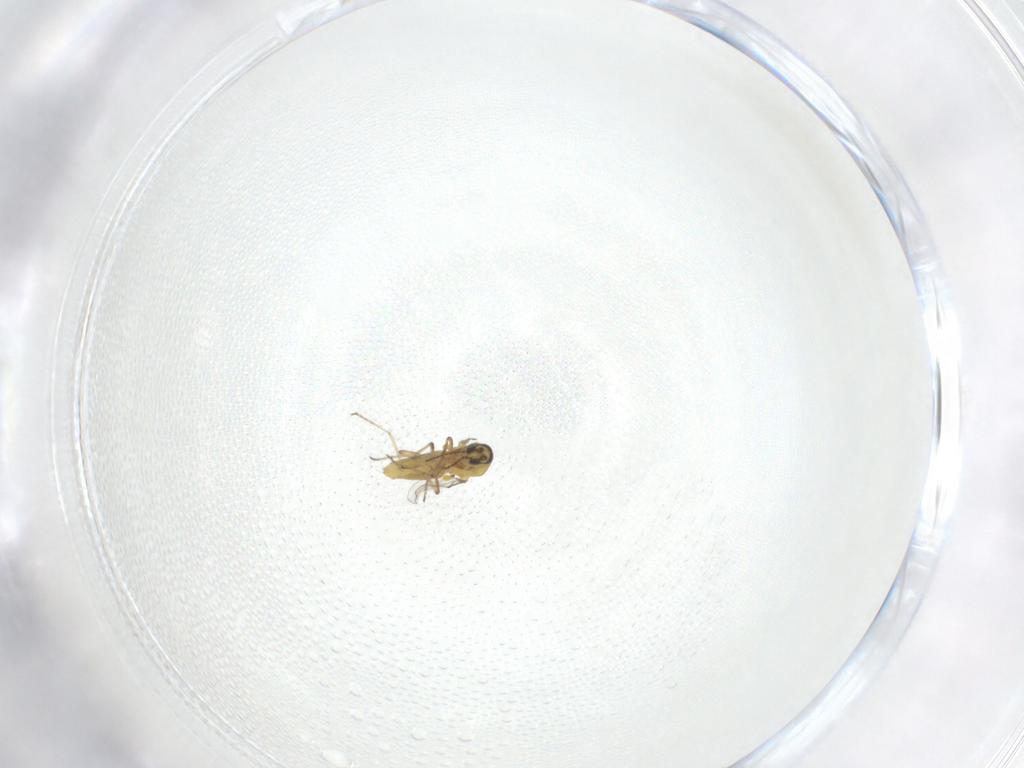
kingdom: Animalia
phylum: Arthropoda
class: Insecta
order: Diptera
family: Ceratopogonidae
